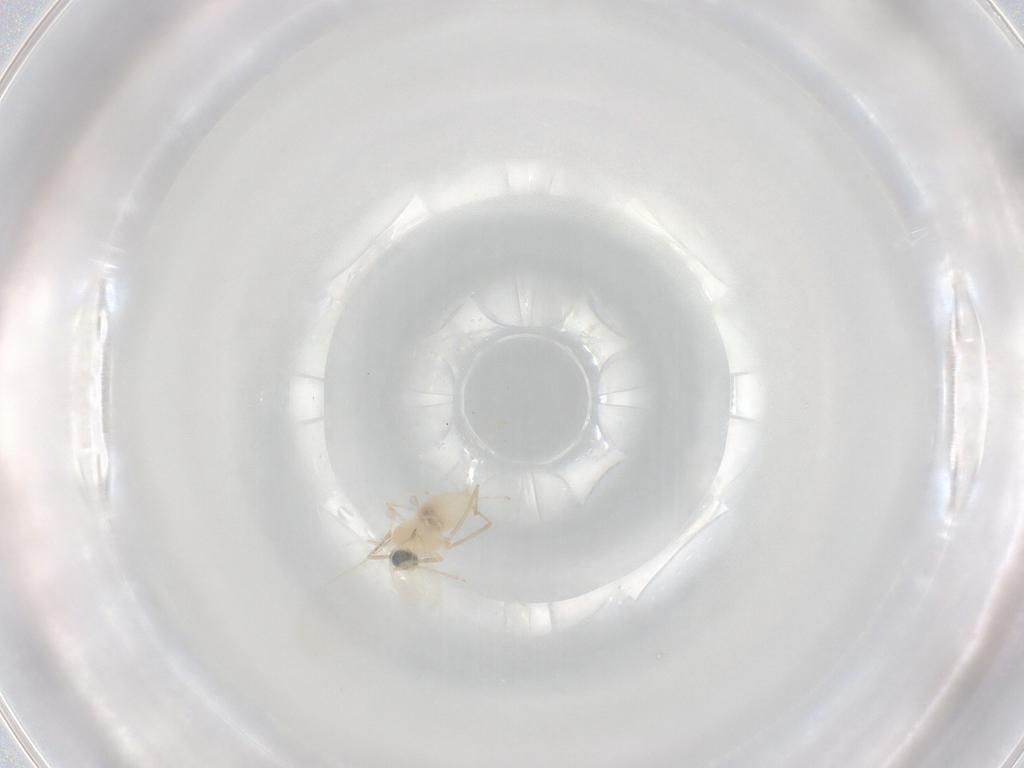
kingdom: Animalia
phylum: Arthropoda
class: Insecta
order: Diptera
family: Cecidomyiidae
